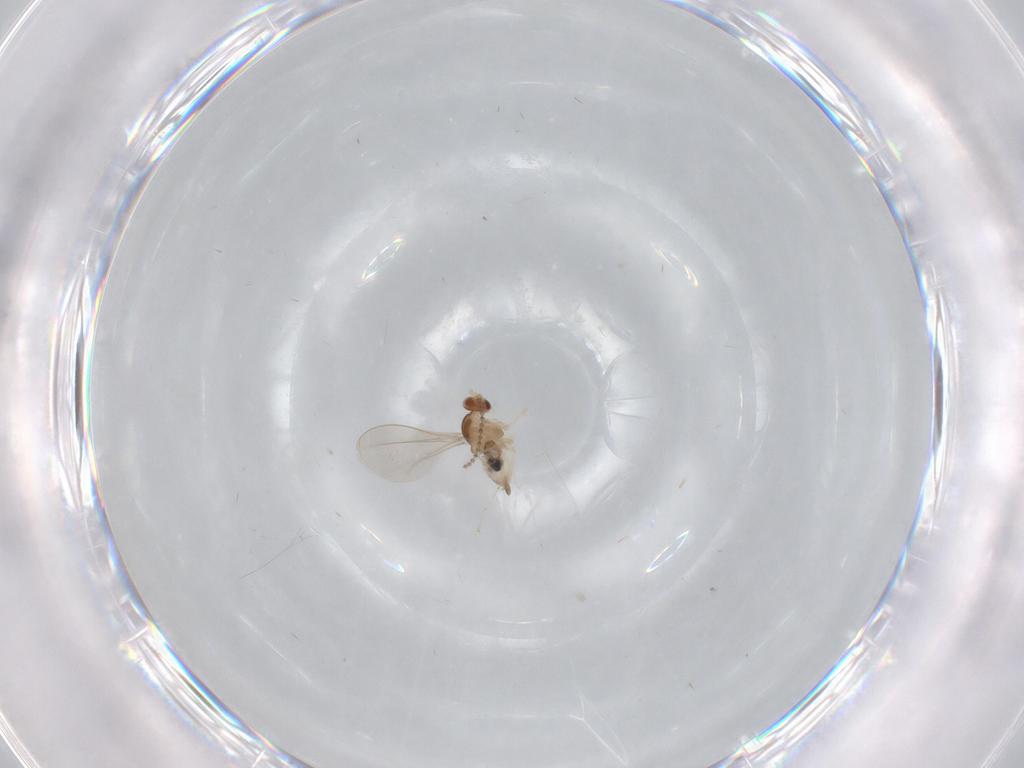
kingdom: Animalia
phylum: Arthropoda
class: Insecta
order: Diptera
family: Cecidomyiidae
